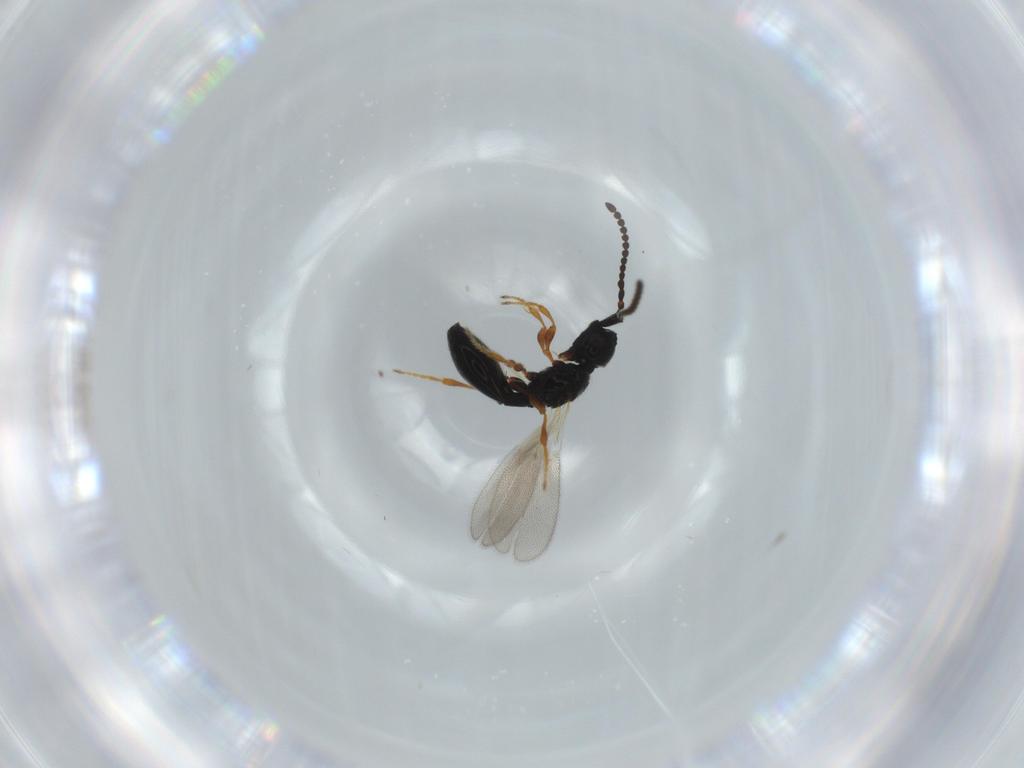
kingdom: Animalia
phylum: Arthropoda
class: Insecta
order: Hymenoptera
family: Diapriidae
